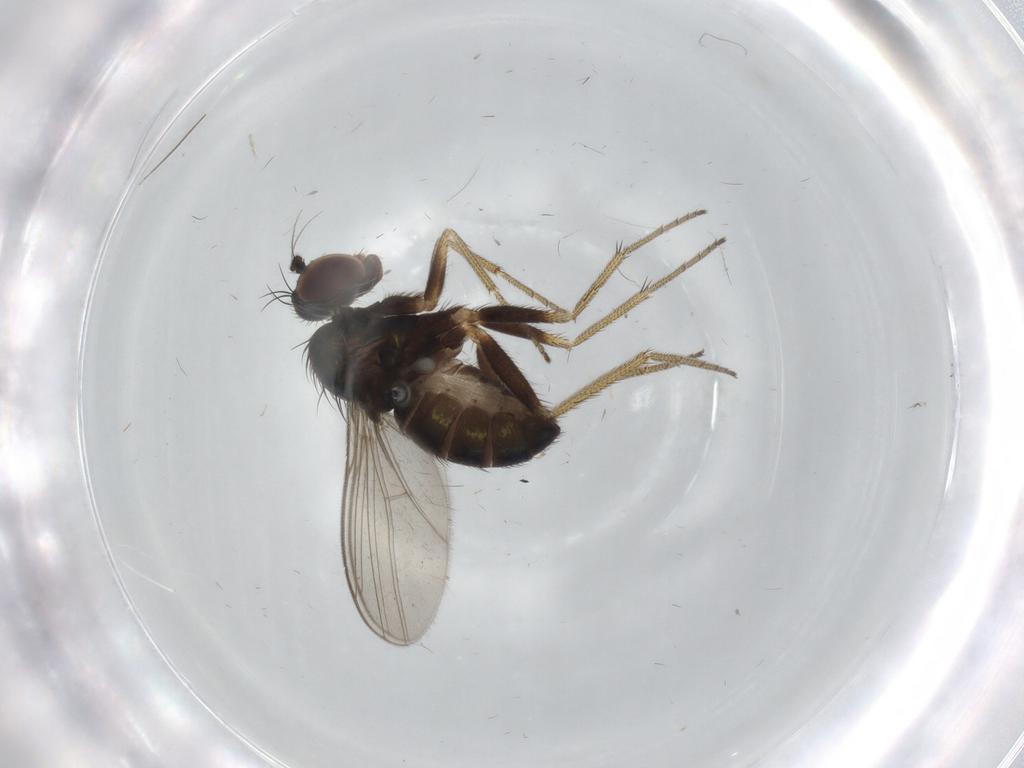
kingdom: Animalia
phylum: Arthropoda
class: Insecta
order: Diptera
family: Dolichopodidae
